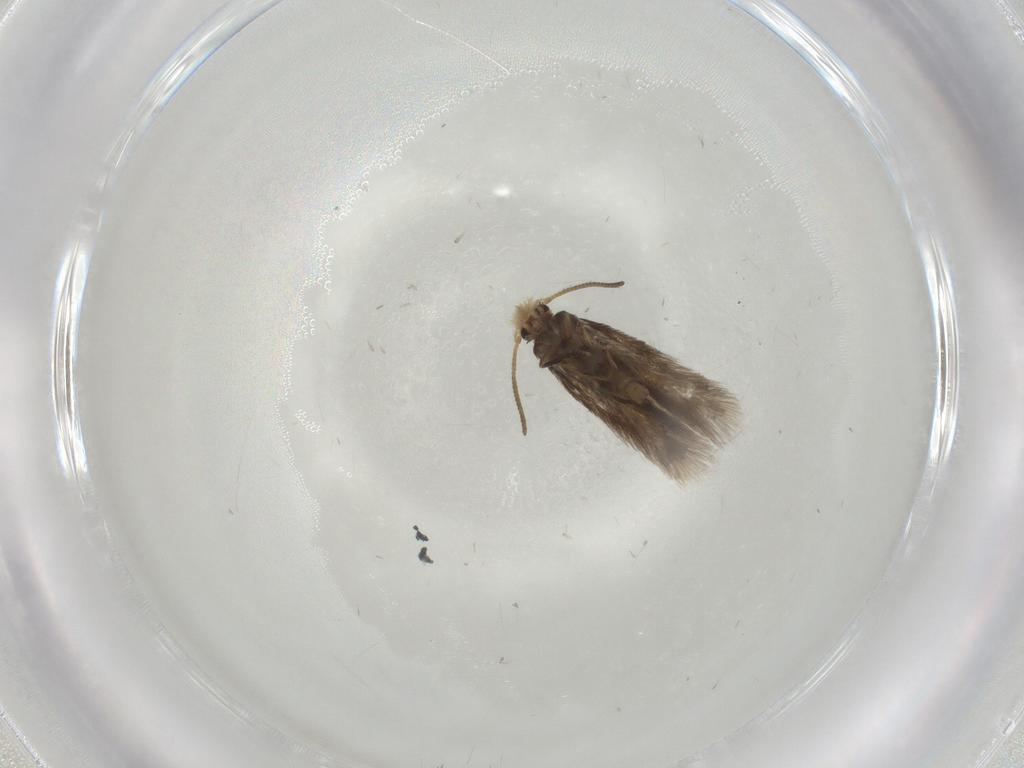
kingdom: Animalia
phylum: Arthropoda
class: Insecta
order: Lepidoptera
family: Nepticulidae
